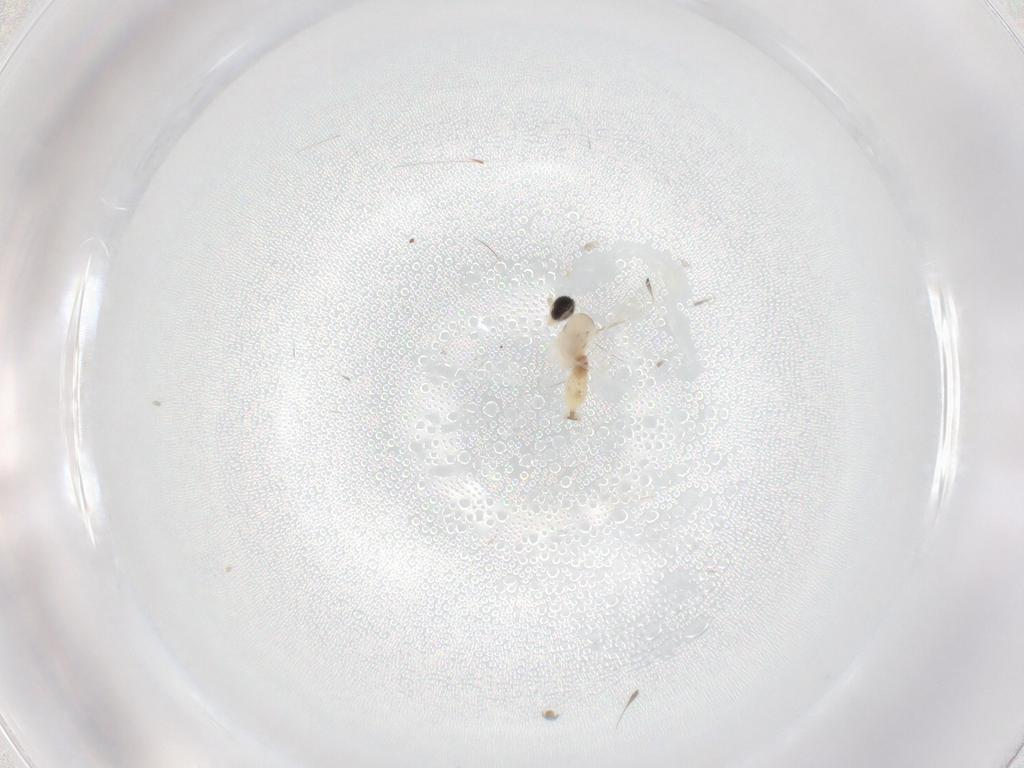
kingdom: Animalia
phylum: Arthropoda
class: Insecta
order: Diptera
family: Cecidomyiidae
